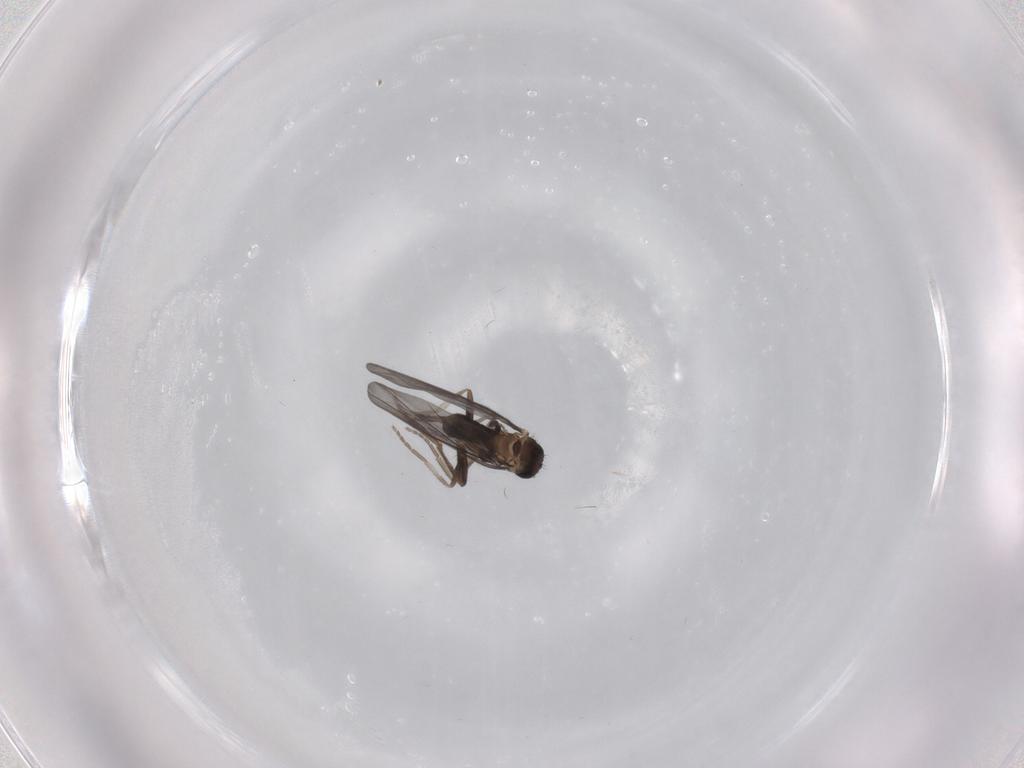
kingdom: Animalia
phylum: Arthropoda
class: Insecta
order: Diptera
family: Phoridae
